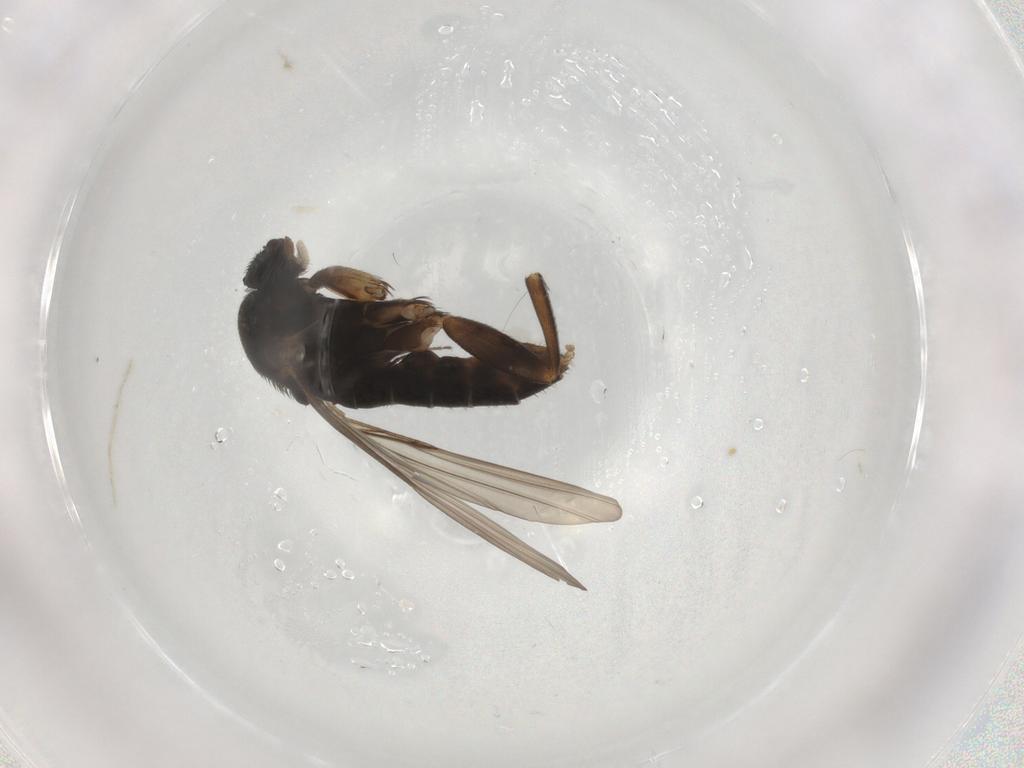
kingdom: Animalia
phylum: Arthropoda
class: Insecta
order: Diptera
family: Phoridae
